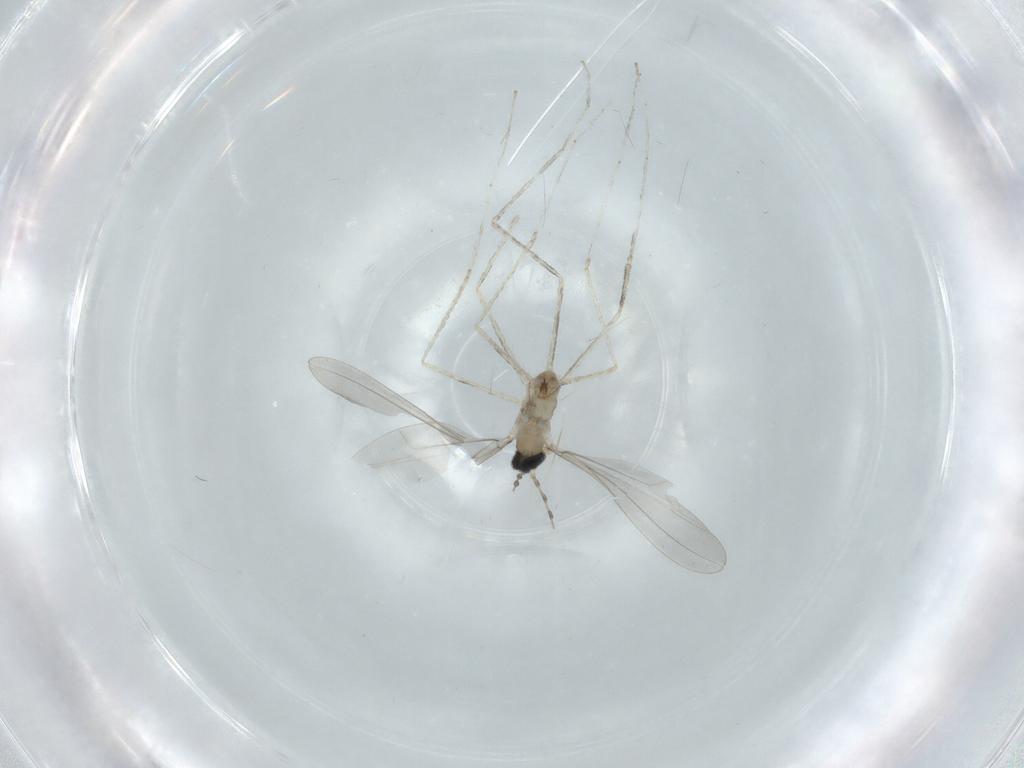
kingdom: Animalia
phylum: Arthropoda
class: Insecta
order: Diptera
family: Cecidomyiidae
